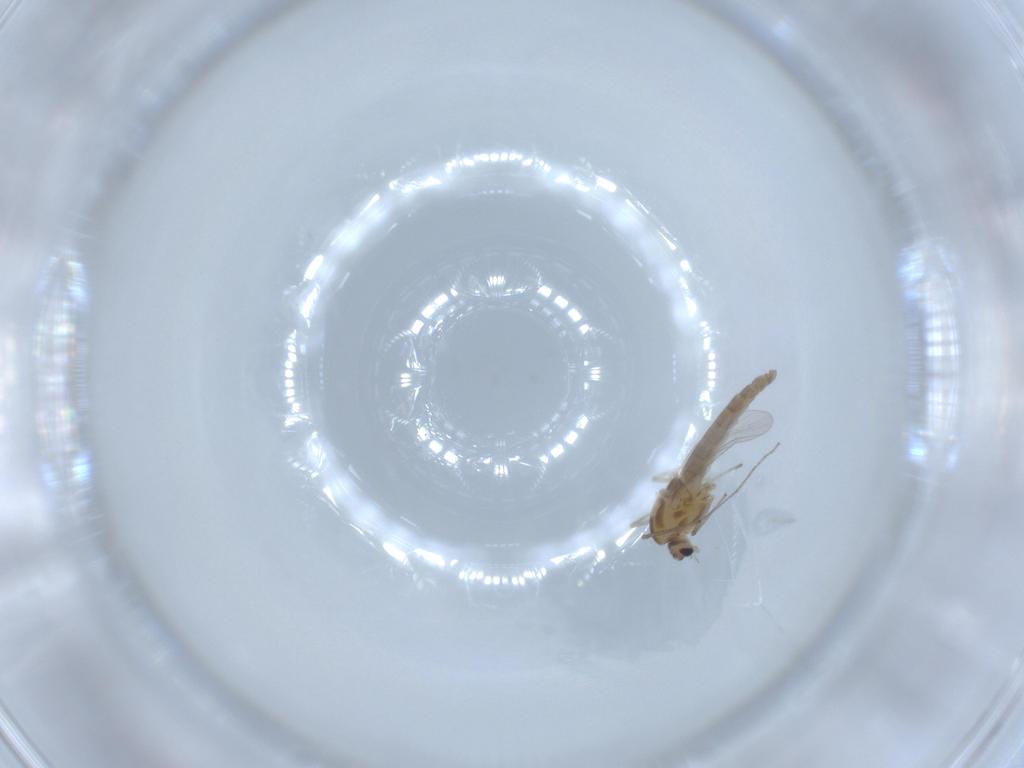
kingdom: Animalia
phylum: Arthropoda
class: Insecta
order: Diptera
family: Chironomidae
